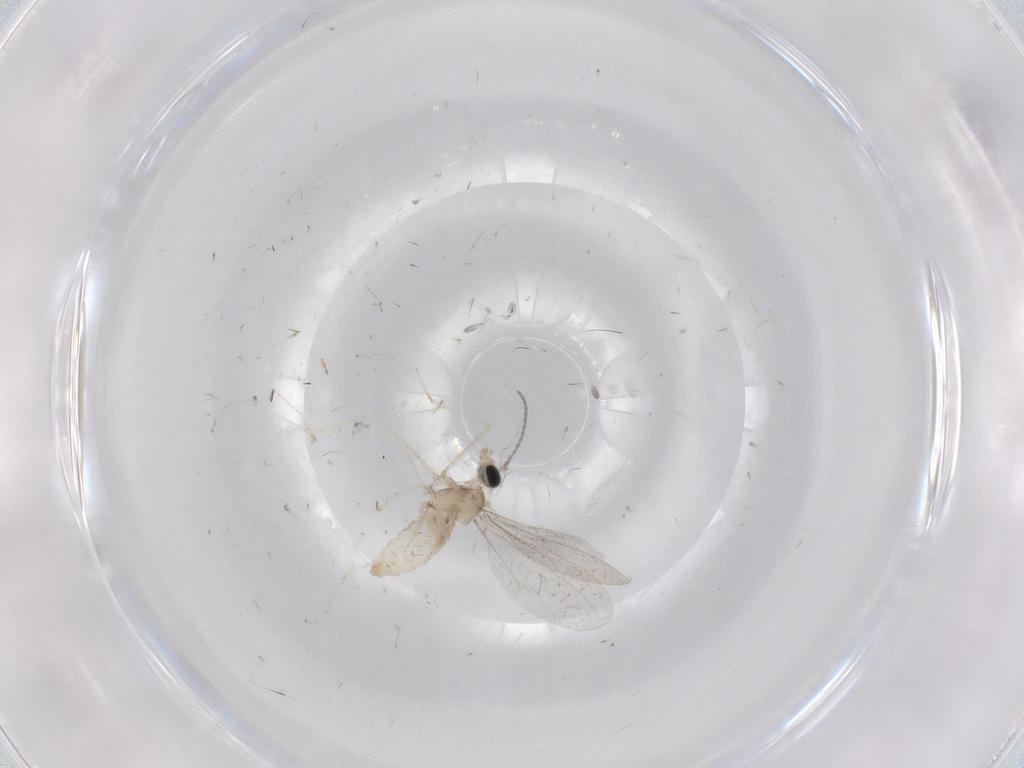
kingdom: Animalia
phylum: Arthropoda
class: Insecta
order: Diptera
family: Cecidomyiidae
